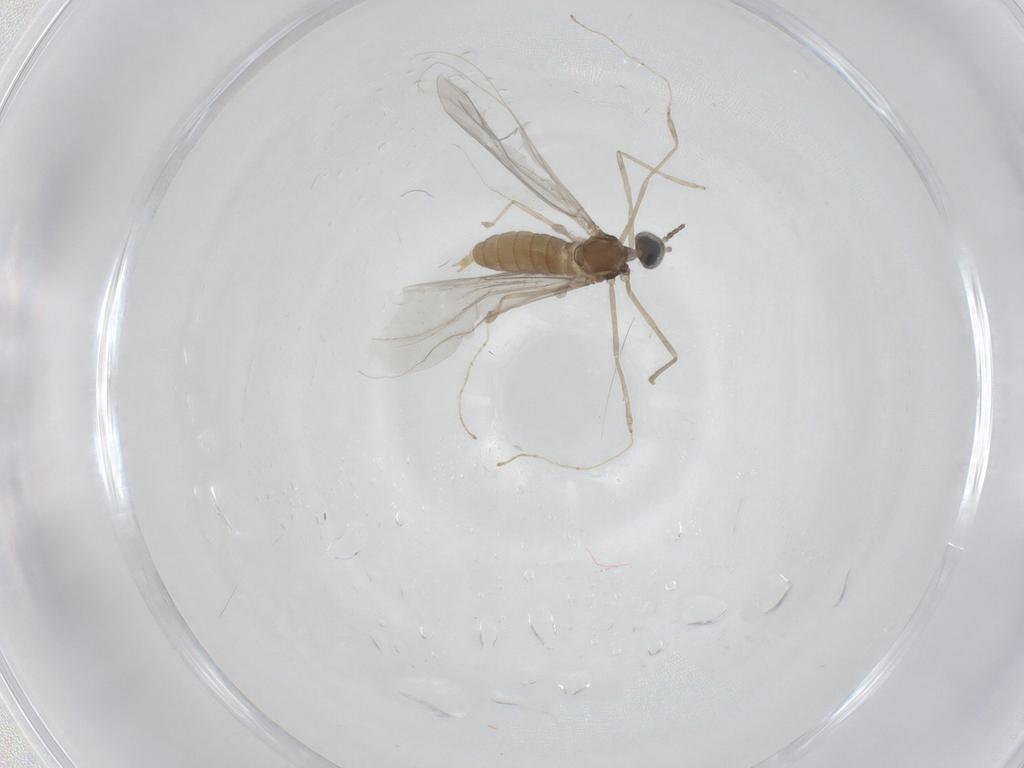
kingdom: Animalia
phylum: Arthropoda
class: Insecta
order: Diptera
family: Cecidomyiidae
